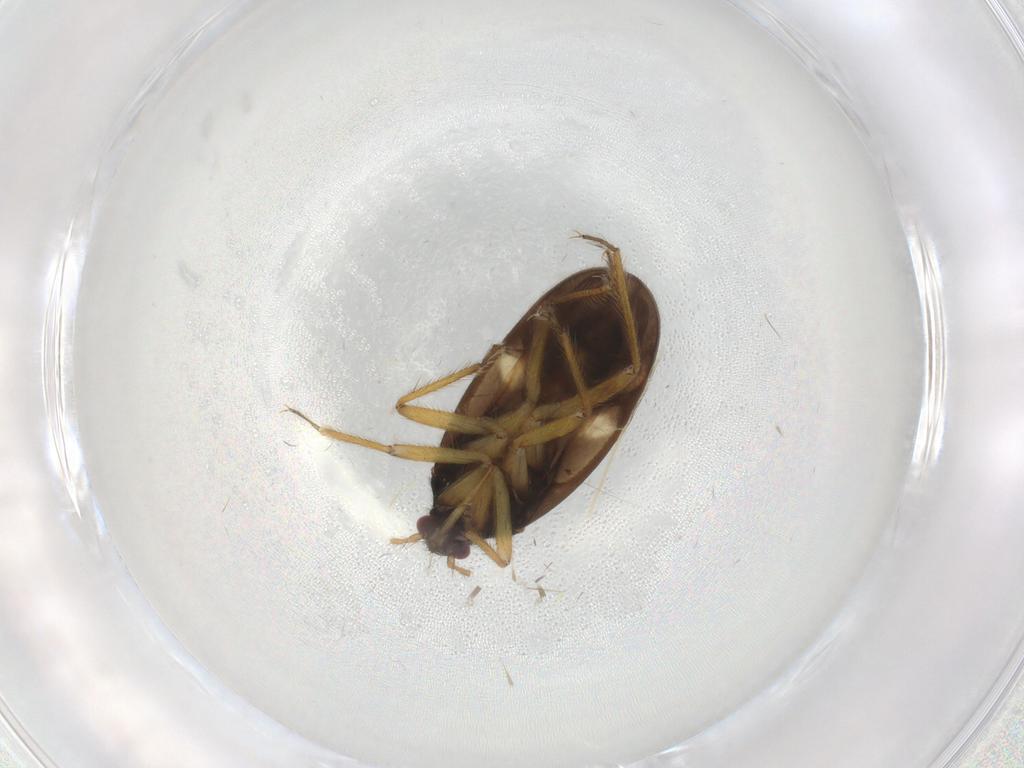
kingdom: Animalia
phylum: Arthropoda
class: Insecta
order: Hemiptera
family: Ceratocombidae
